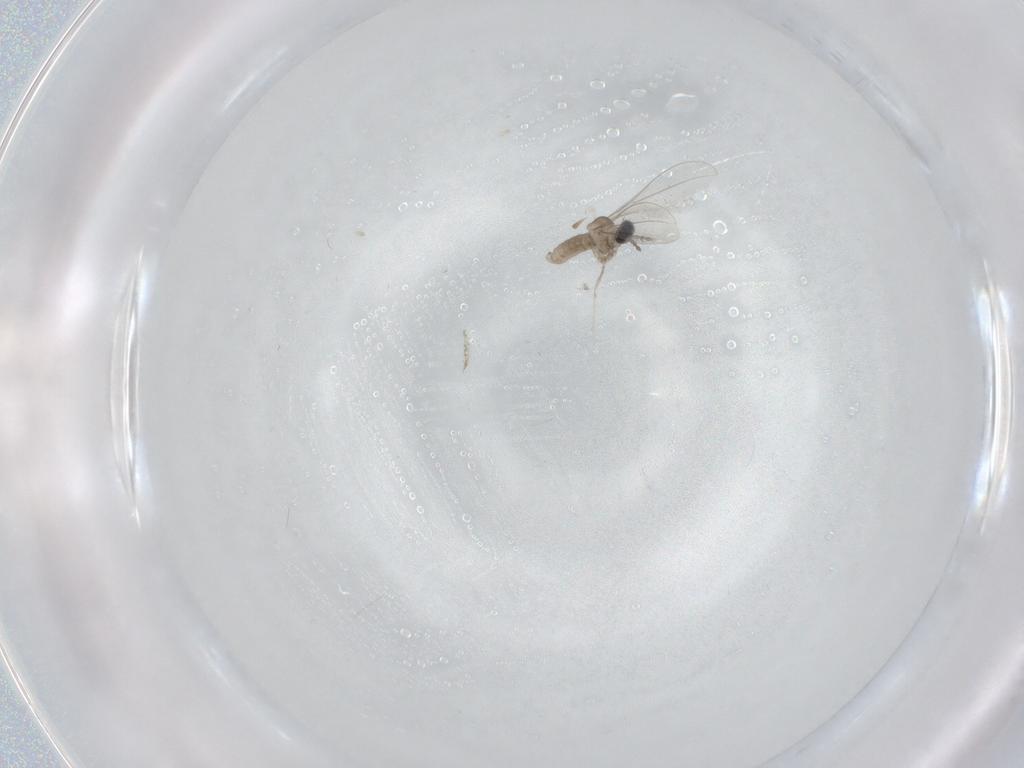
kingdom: Animalia
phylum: Arthropoda
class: Insecta
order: Diptera
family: Cecidomyiidae
